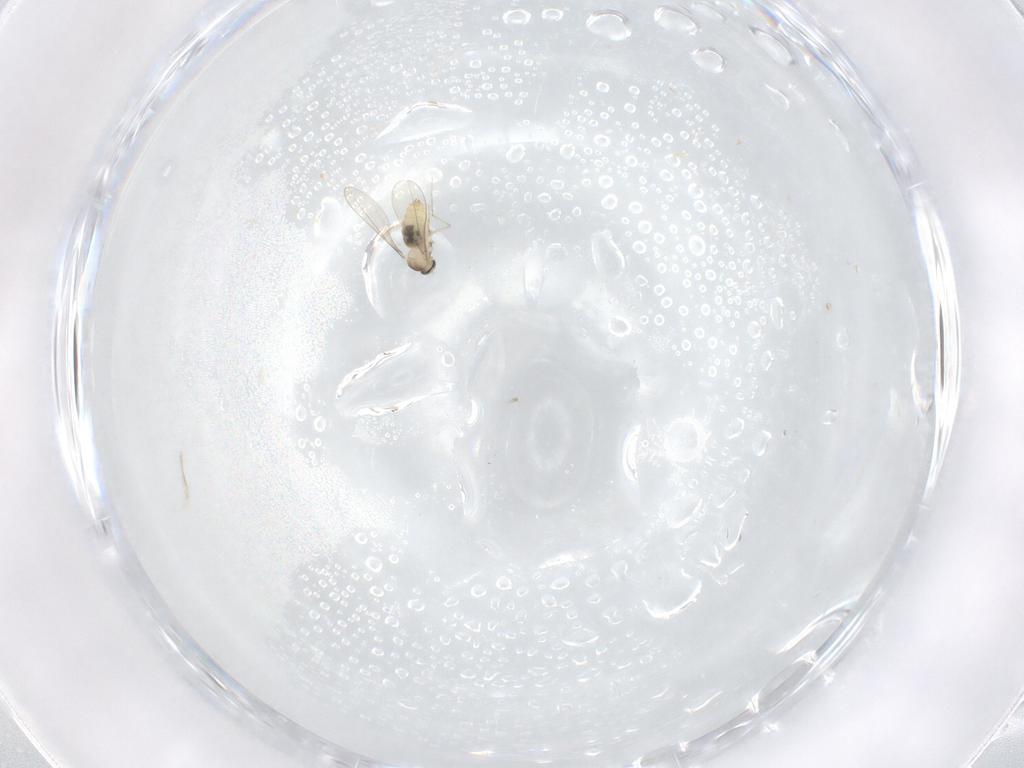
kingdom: Animalia
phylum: Arthropoda
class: Insecta
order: Diptera
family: Cecidomyiidae
